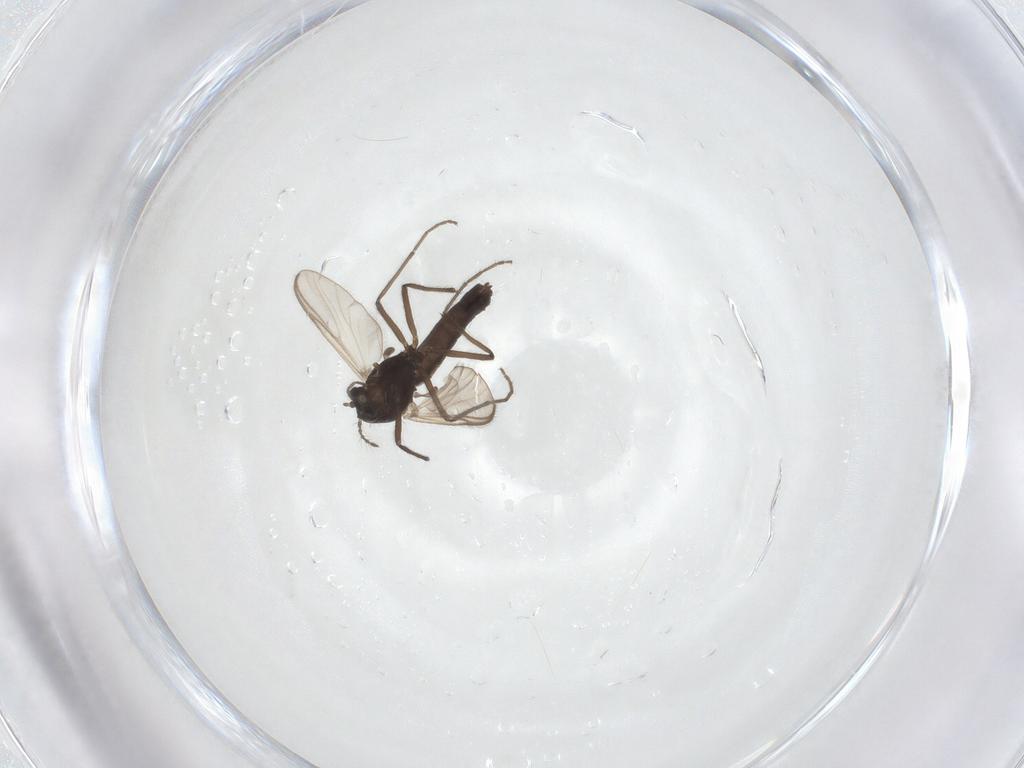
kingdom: Animalia
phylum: Arthropoda
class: Insecta
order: Diptera
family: Chironomidae
